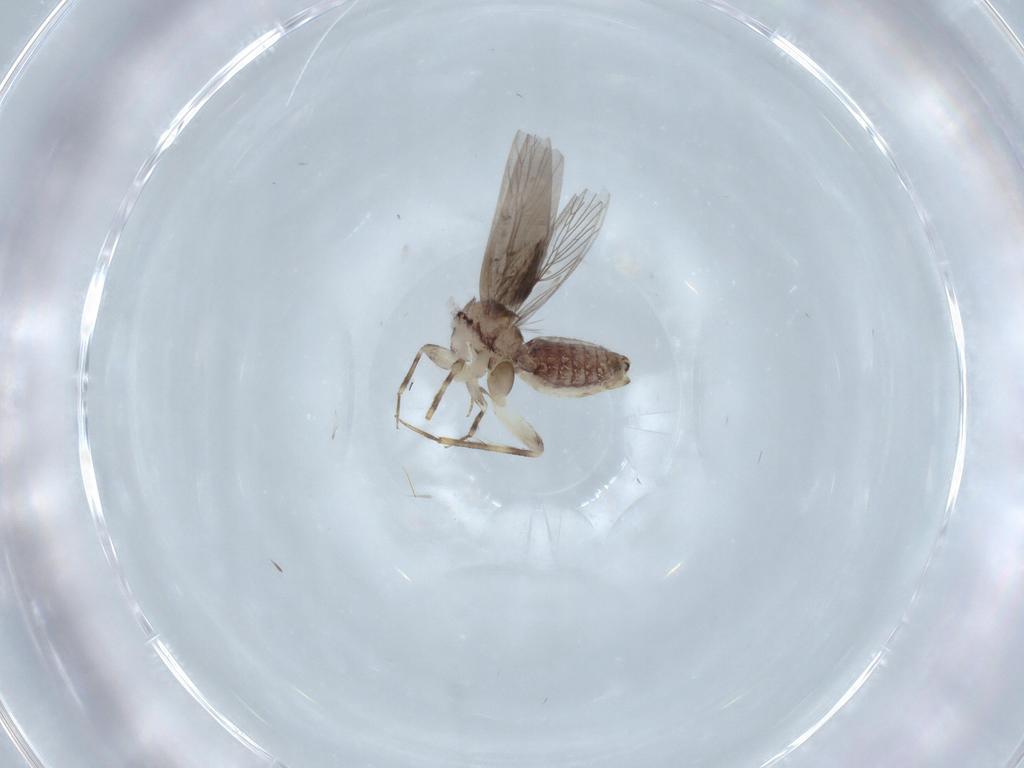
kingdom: Animalia
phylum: Arthropoda
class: Insecta
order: Psocodea
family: Lepidopsocidae
